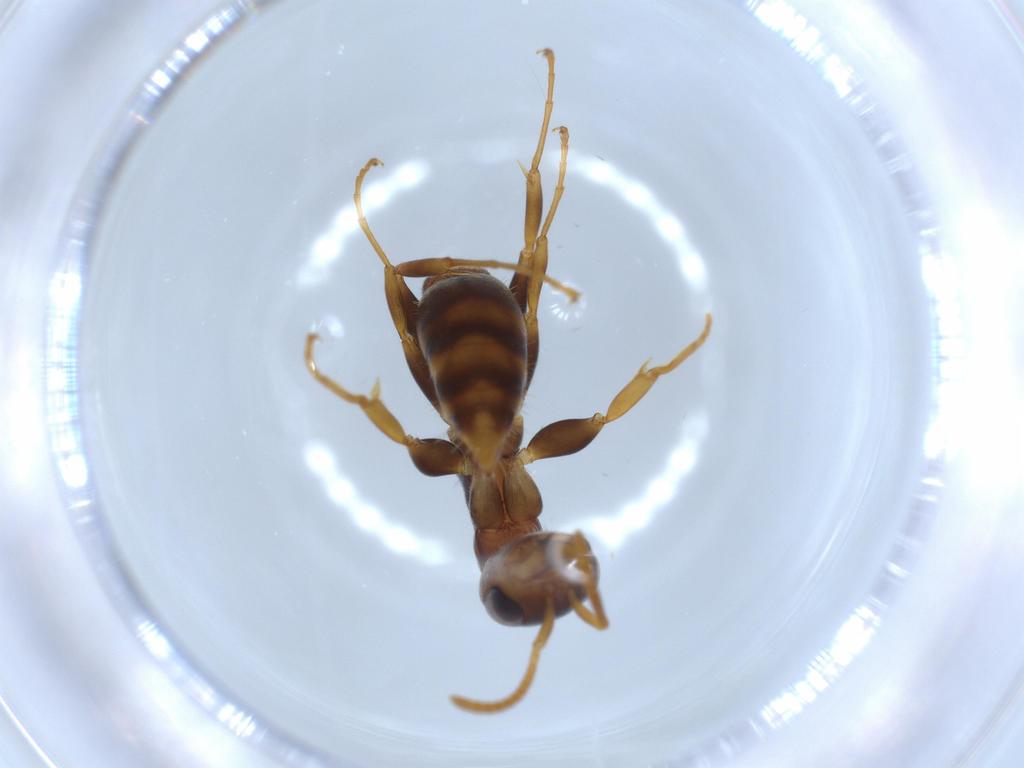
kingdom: Animalia
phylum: Arthropoda
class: Insecta
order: Hymenoptera
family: Formicidae
